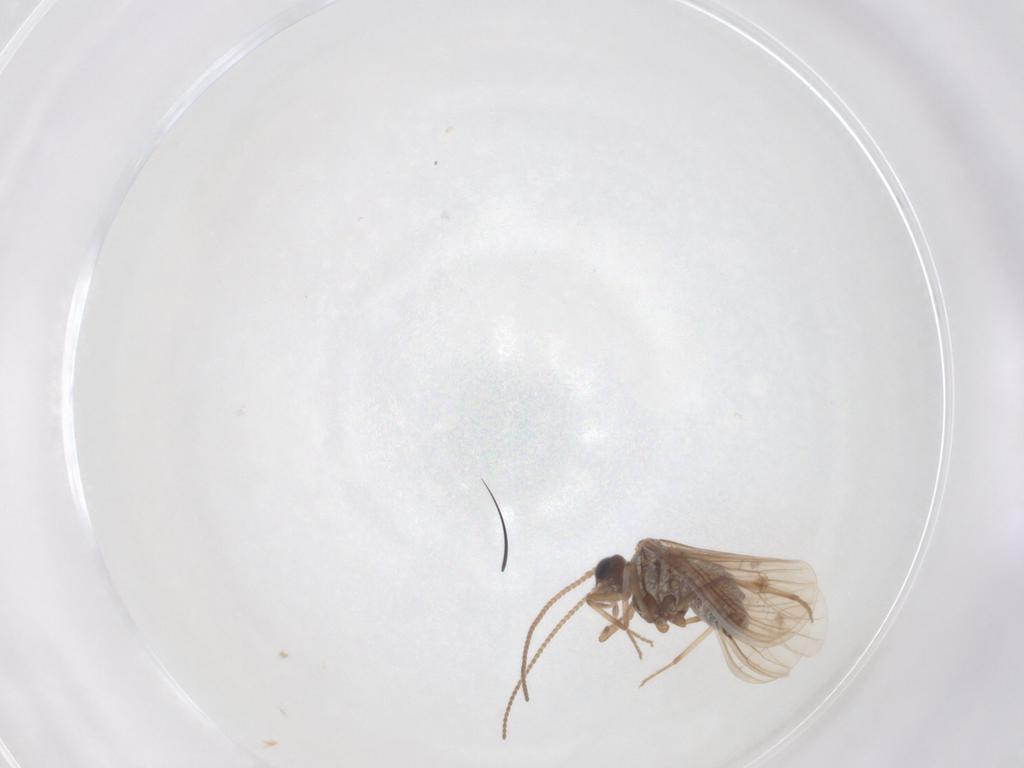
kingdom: Animalia
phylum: Arthropoda
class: Insecta
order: Neuroptera
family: Coniopterygidae
